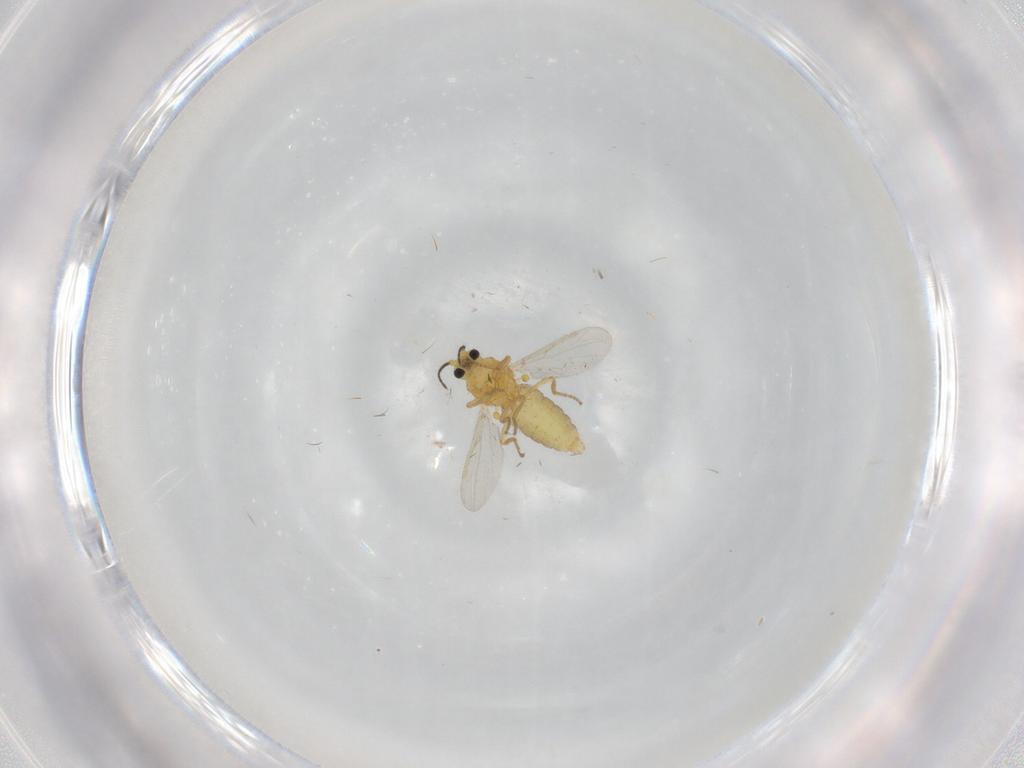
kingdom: Animalia
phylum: Arthropoda
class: Insecta
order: Diptera
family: Ceratopogonidae
